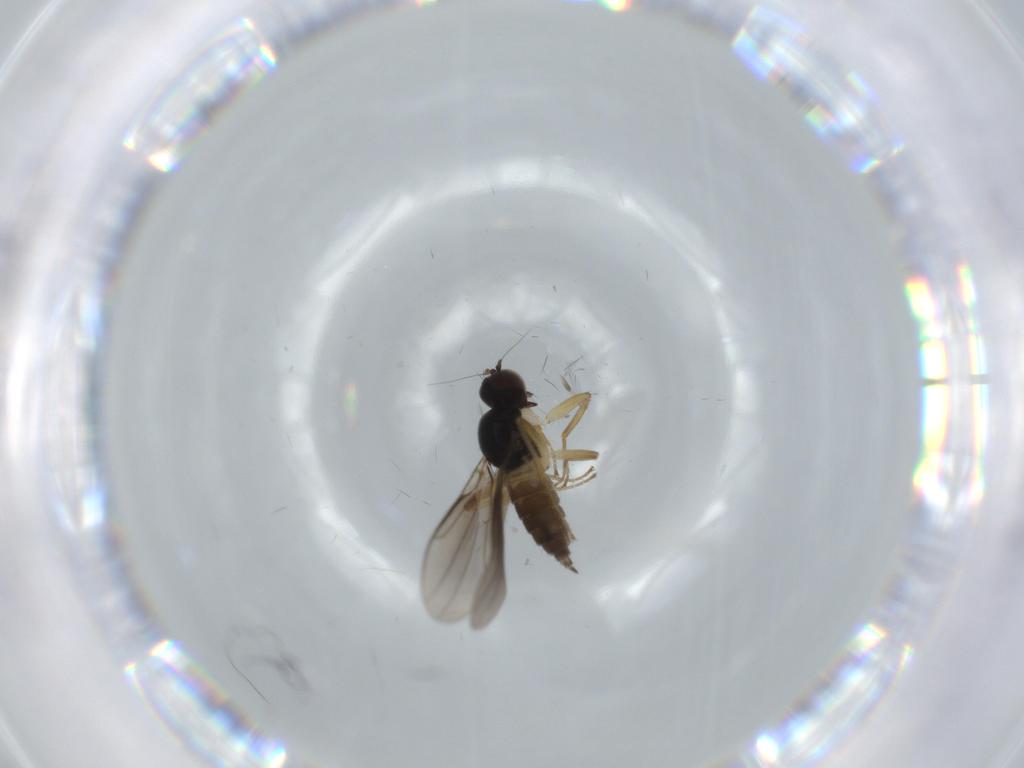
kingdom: Animalia
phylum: Arthropoda
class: Insecta
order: Diptera
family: Hybotidae
